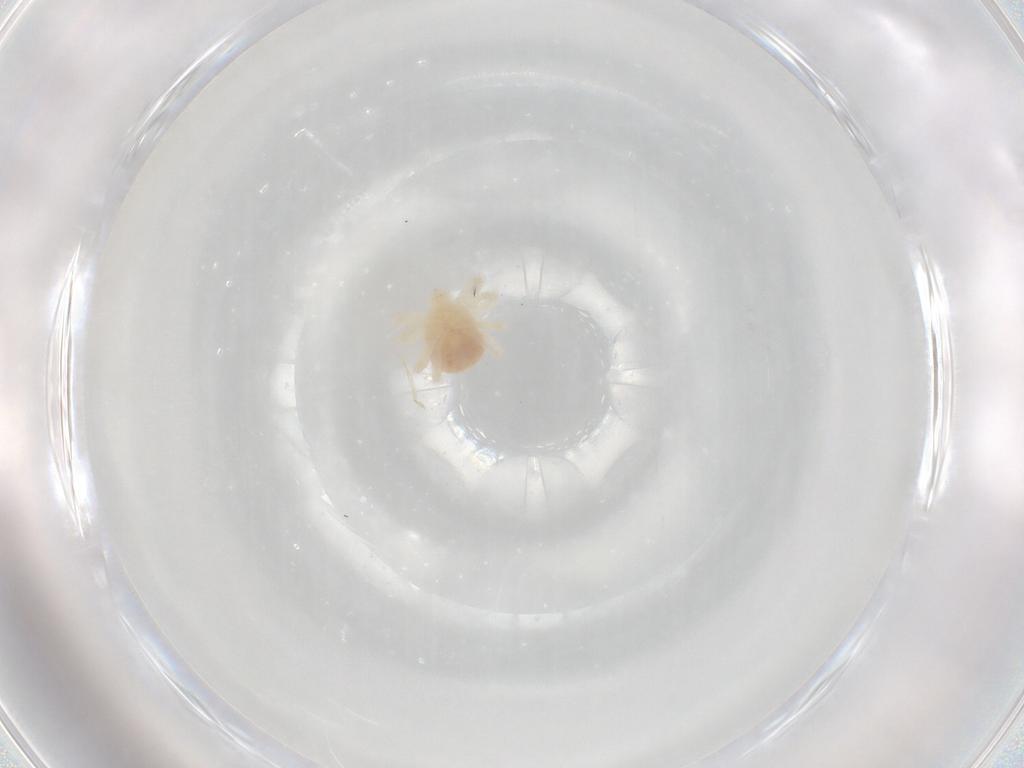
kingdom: Animalia
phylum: Arthropoda
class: Arachnida
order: Trombidiformes
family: Anystidae
